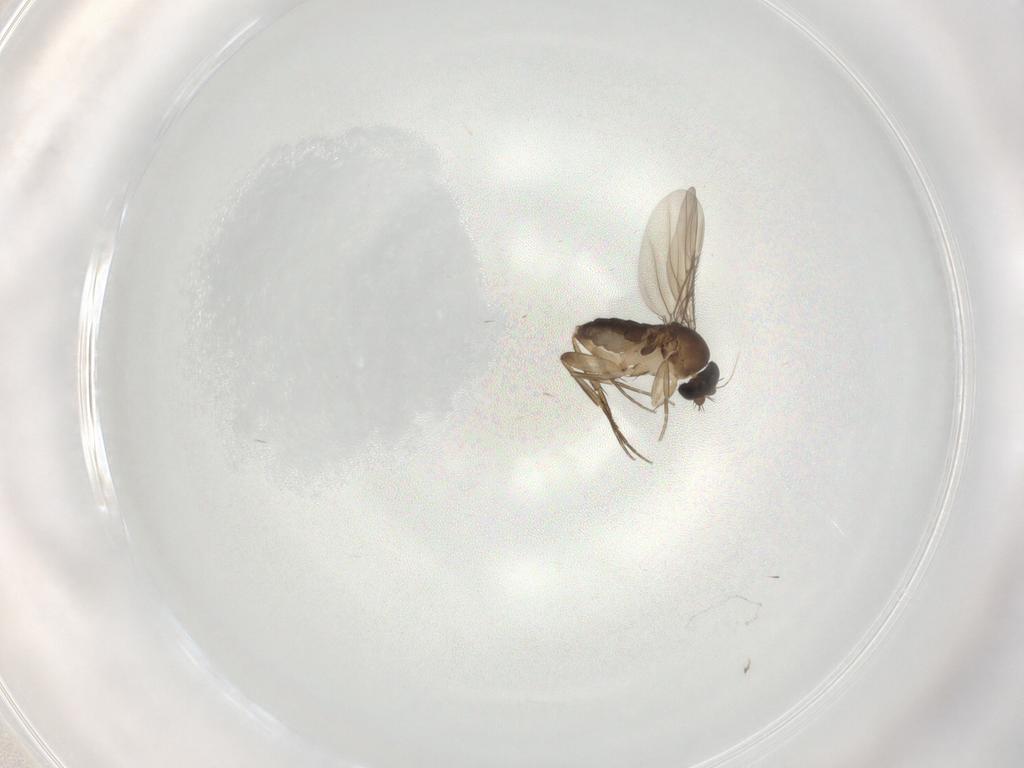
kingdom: Animalia
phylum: Arthropoda
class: Insecta
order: Diptera
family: Phoridae
